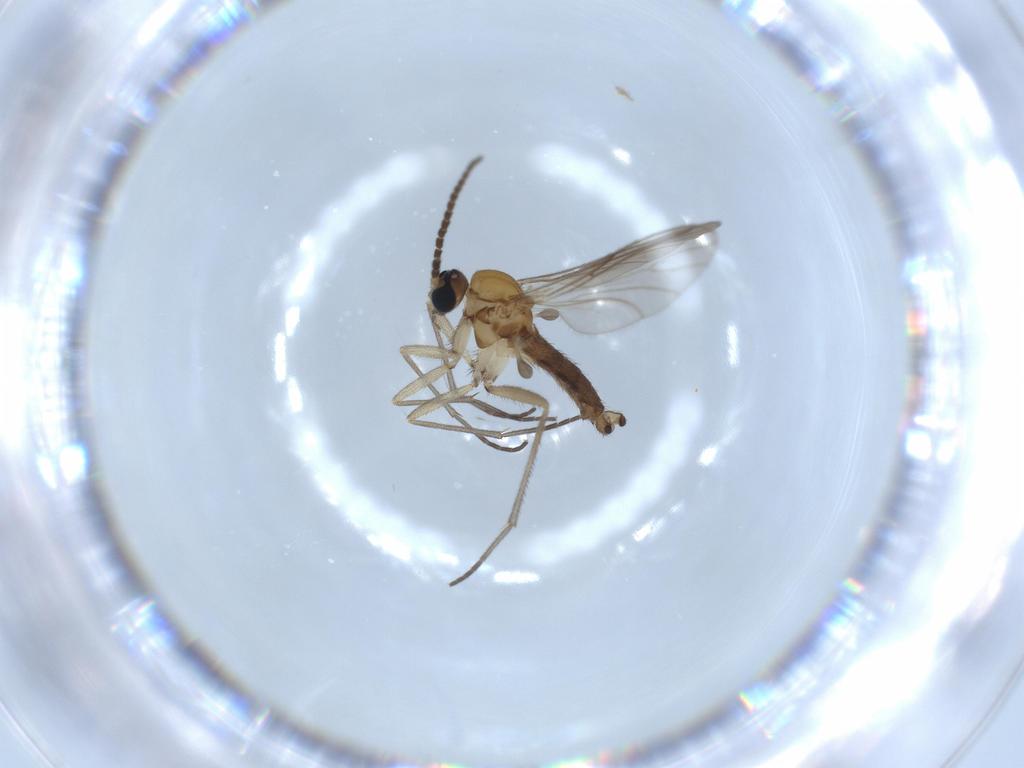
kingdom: Animalia
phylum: Arthropoda
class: Insecta
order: Diptera
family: Sciaridae
